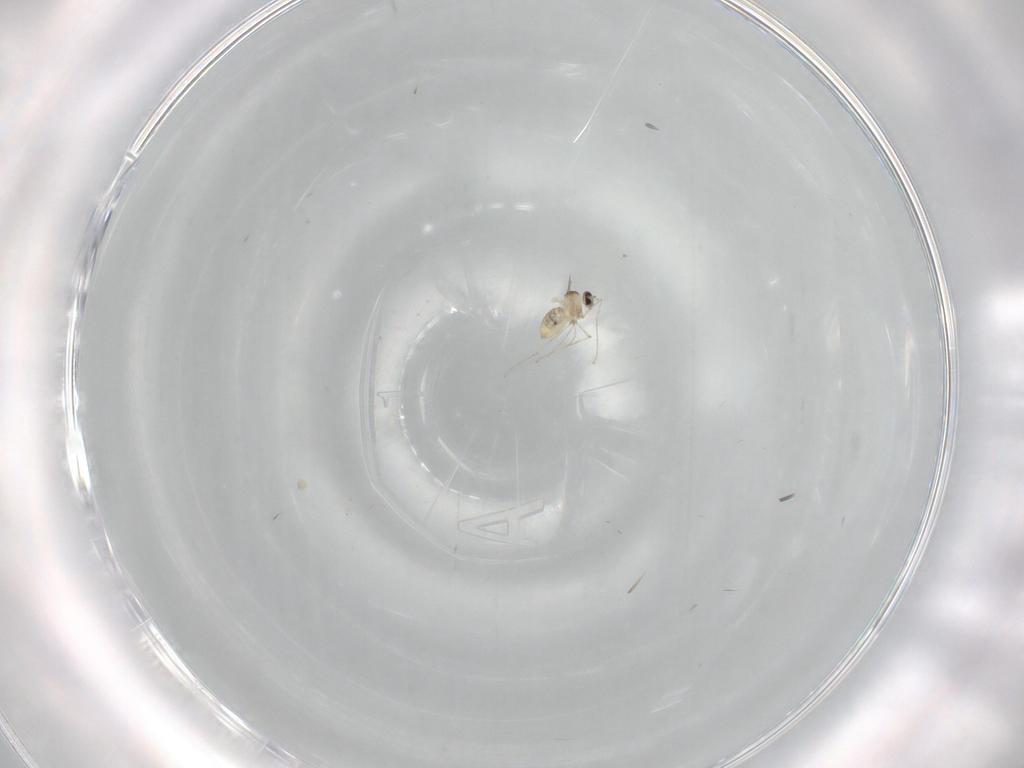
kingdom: Animalia
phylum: Arthropoda
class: Insecta
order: Diptera
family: Cecidomyiidae
